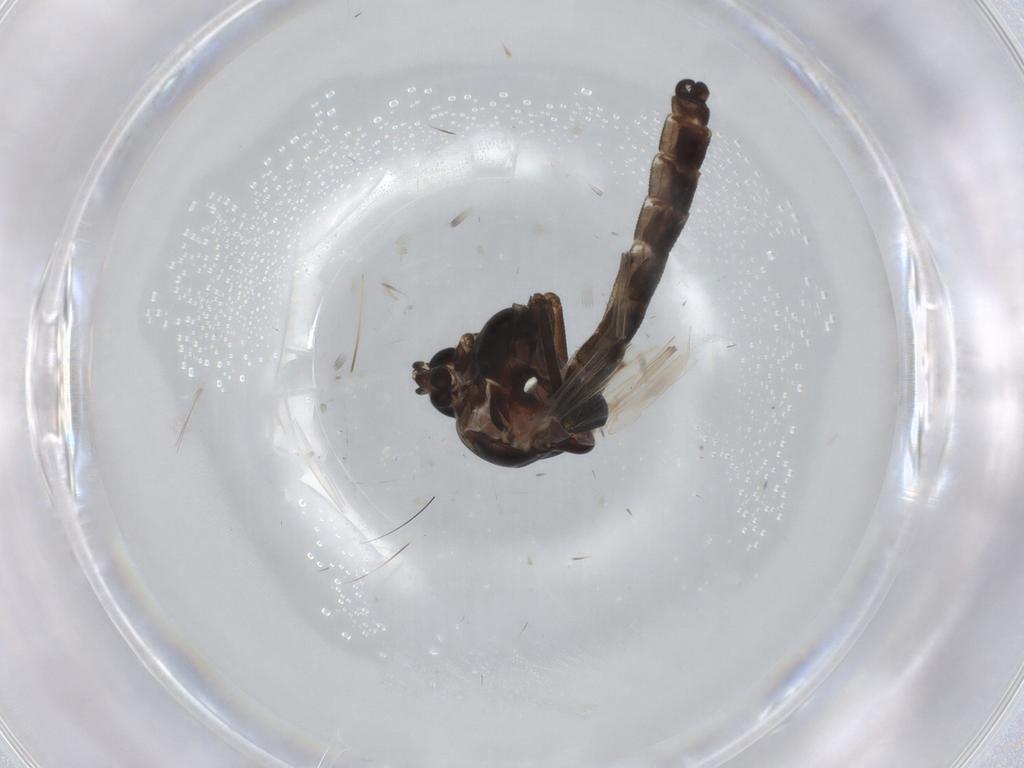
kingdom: Animalia
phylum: Arthropoda
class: Insecta
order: Diptera
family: Chironomidae
